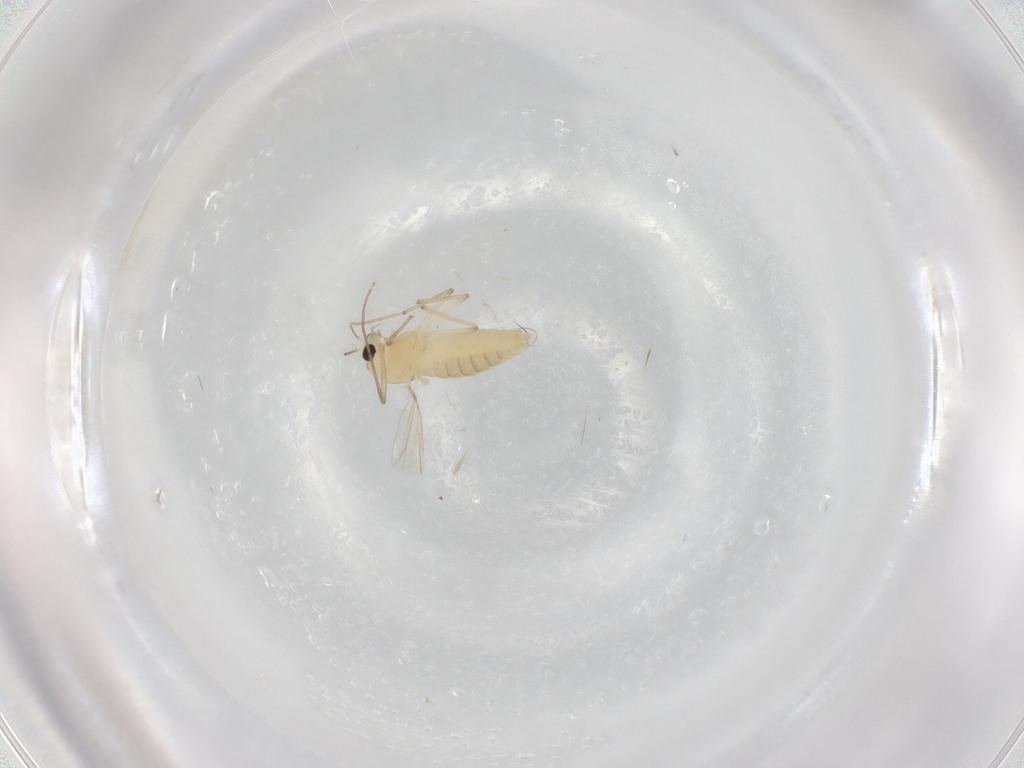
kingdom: Animalia
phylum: Arthropoda
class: Insecta
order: Diptera
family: Chironomidae
